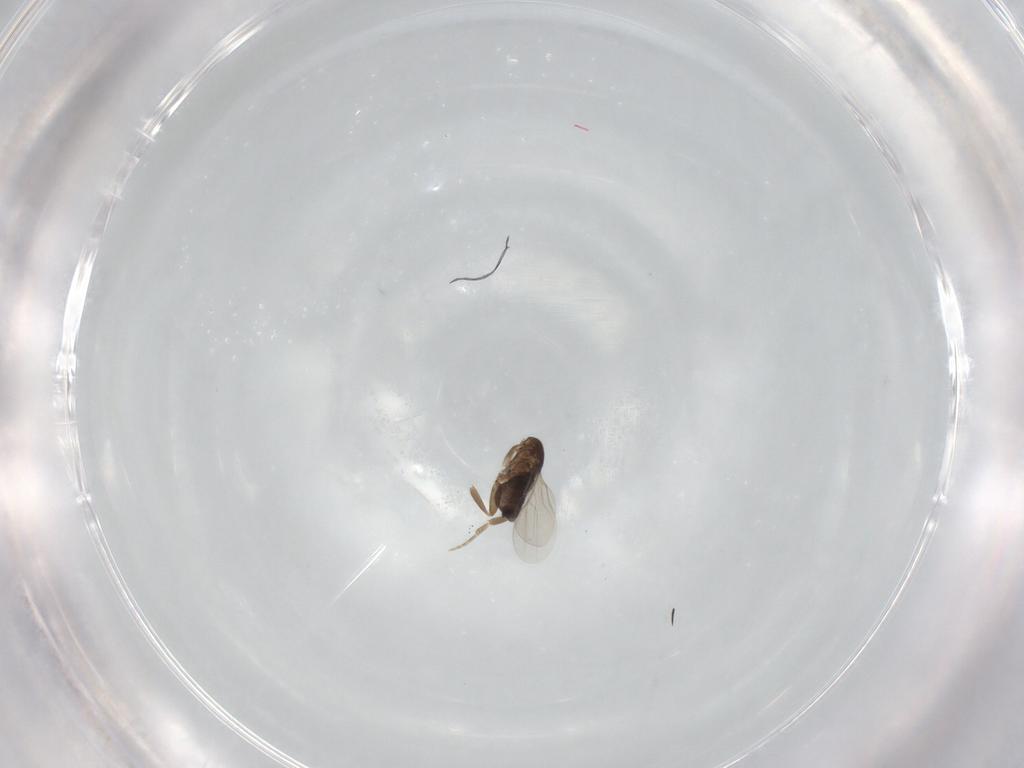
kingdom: Animalia
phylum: Arthropoda
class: Insecta
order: Diptera
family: Phoridae
